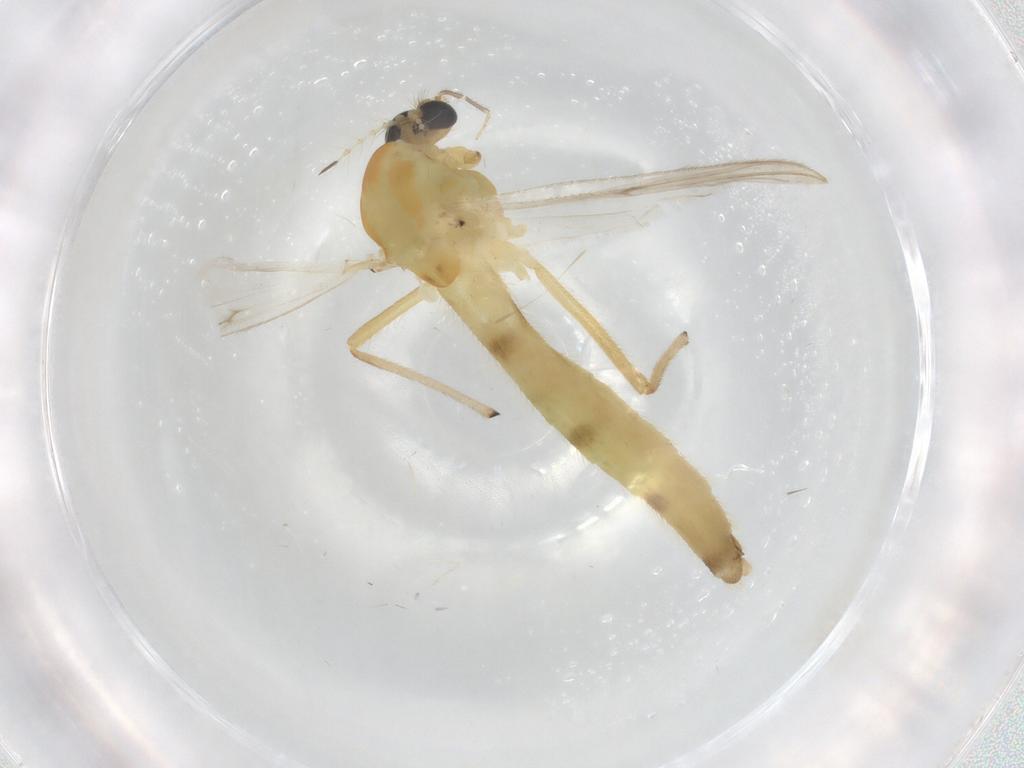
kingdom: Animalia
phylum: Arthropoda
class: Insecta
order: Diptera
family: Chironomidae
